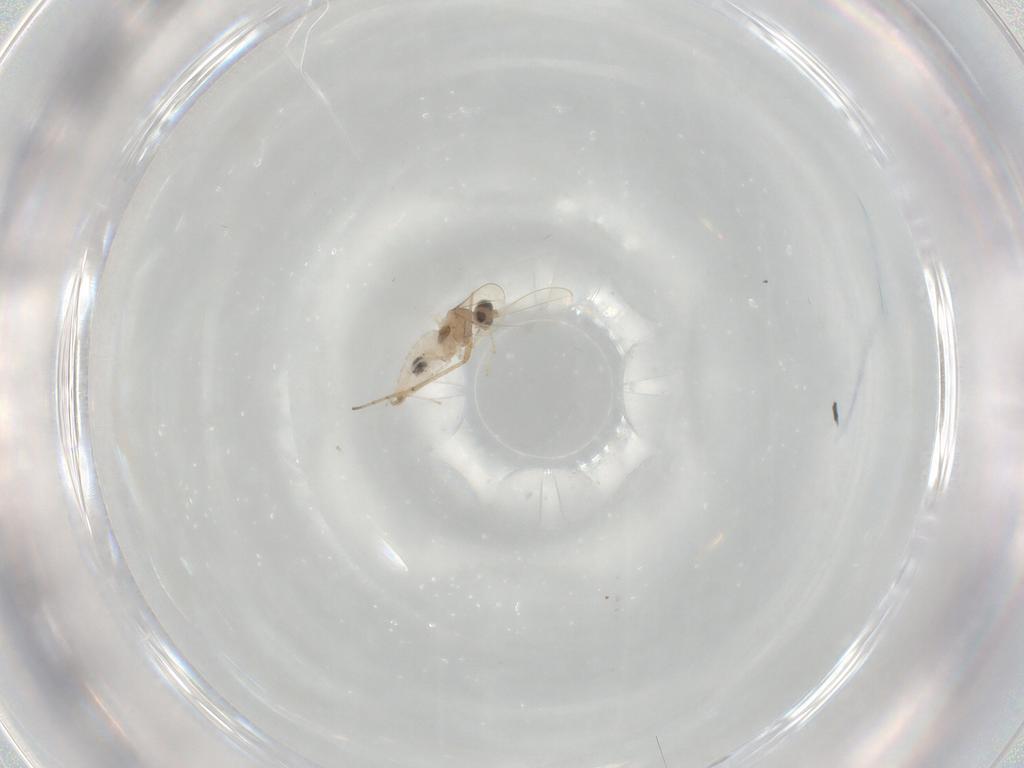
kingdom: Animalia
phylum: Arthropoda
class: Insecta
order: Diptera
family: Cecidomyiidae
